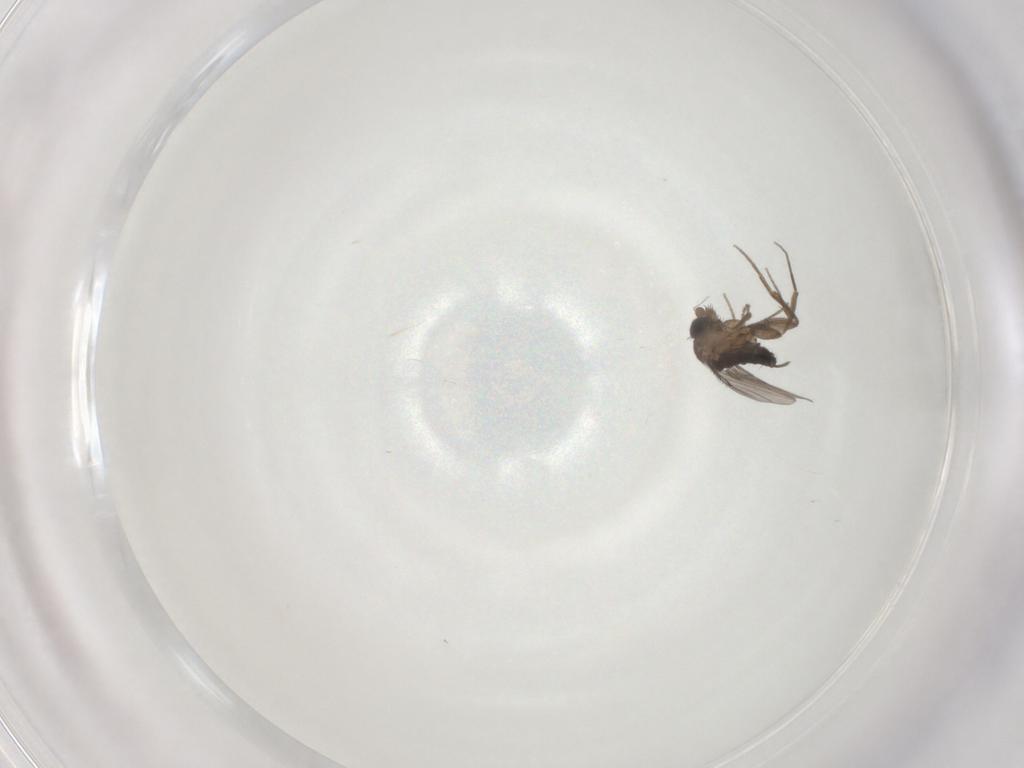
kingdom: Animalia
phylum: Arthropoda
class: Insecta
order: Diptera
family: Phoridae
